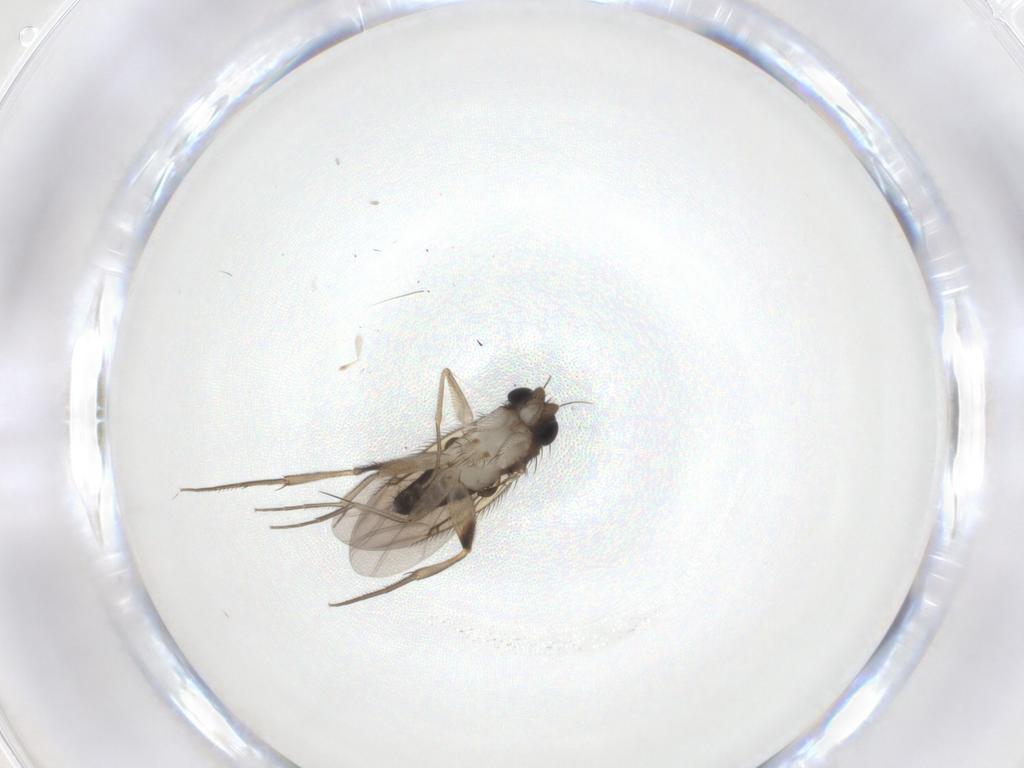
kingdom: Animalia
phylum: Arthropoda
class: Insecta
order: Diptera
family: Phoridae
